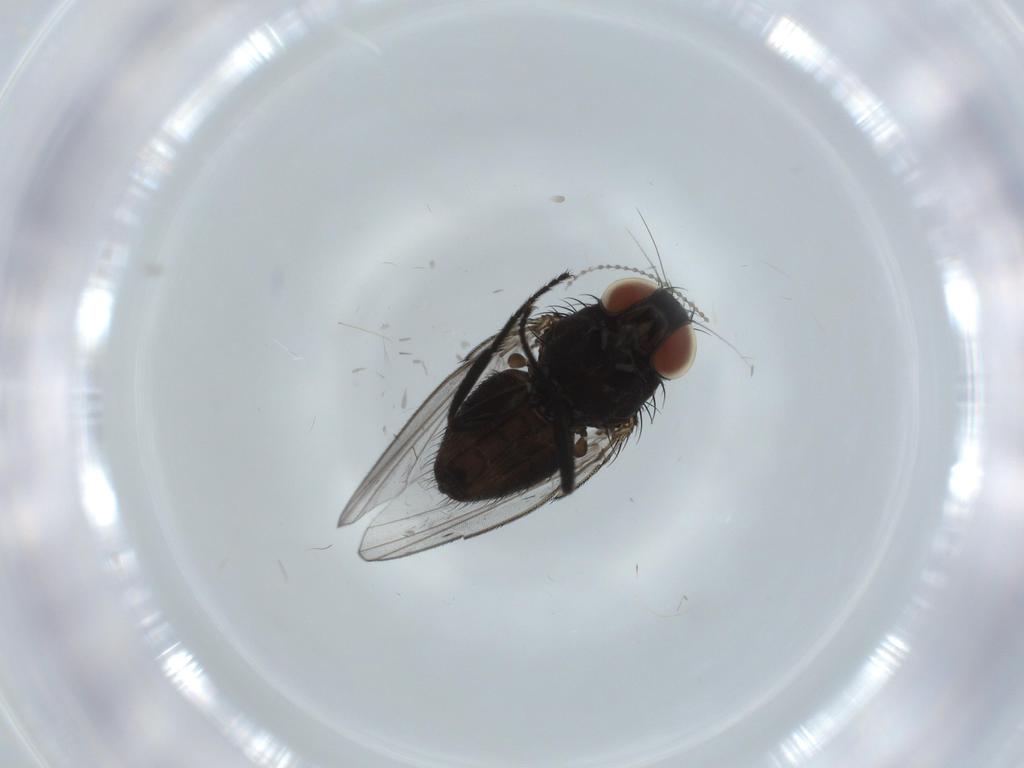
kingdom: Animalia
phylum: Arthropoda
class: Insecta
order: Diptera
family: Milichiidae
